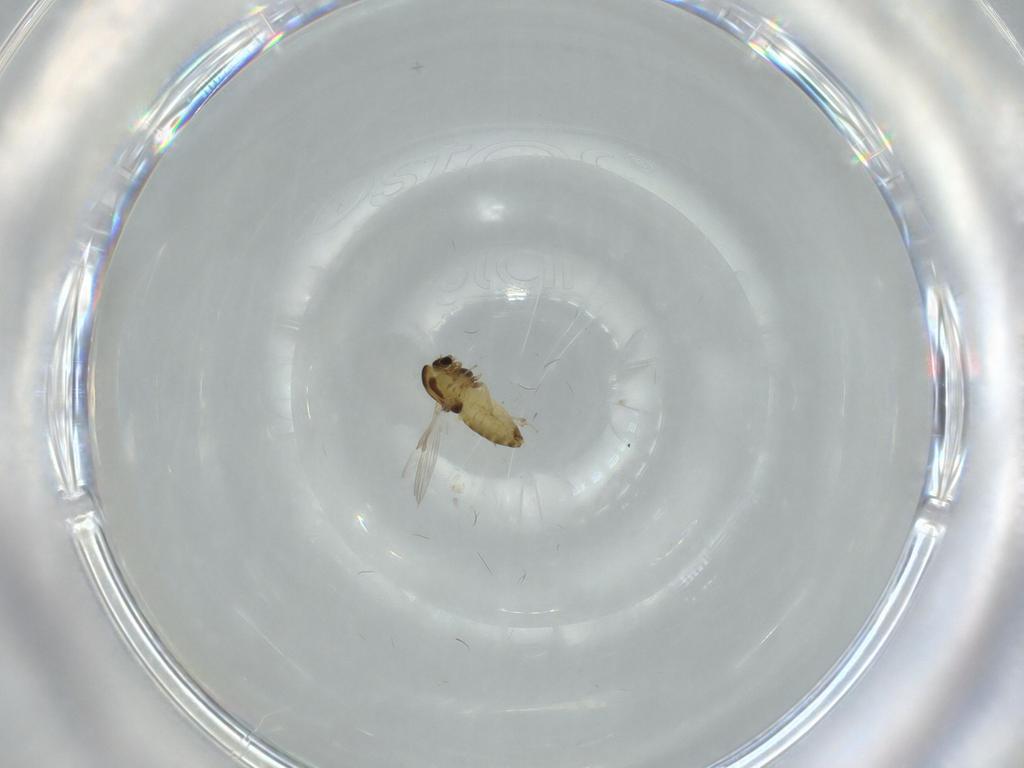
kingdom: Animalia
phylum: Arthropoda
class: Insecta
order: Diptera
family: Chironomidae
